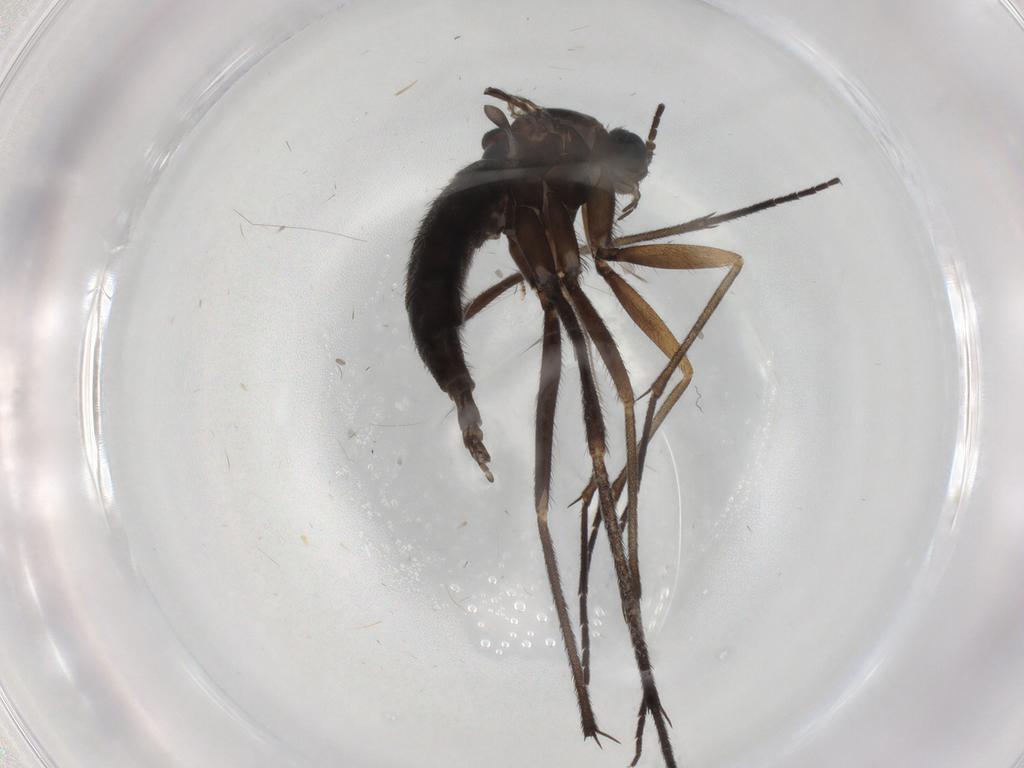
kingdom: Animalia
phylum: Arthropoda
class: Insecta
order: Diptera
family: Sciaridae
